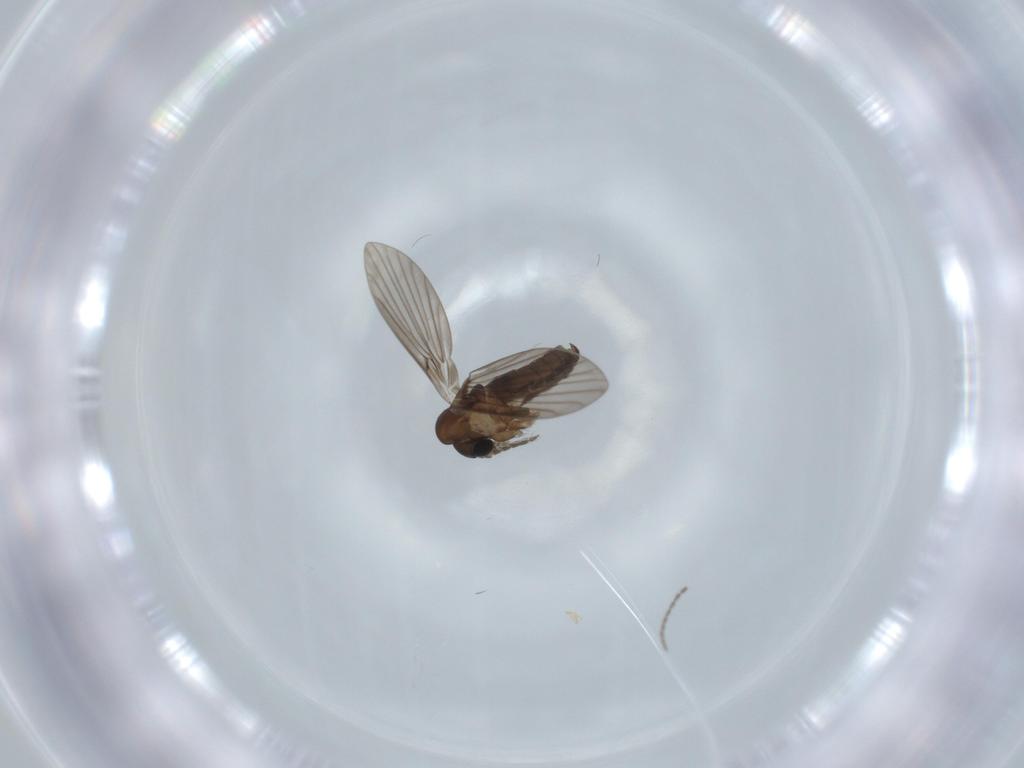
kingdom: Animalia
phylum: Arthropoda
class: Insecta
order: Diptera
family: Psychodidae
